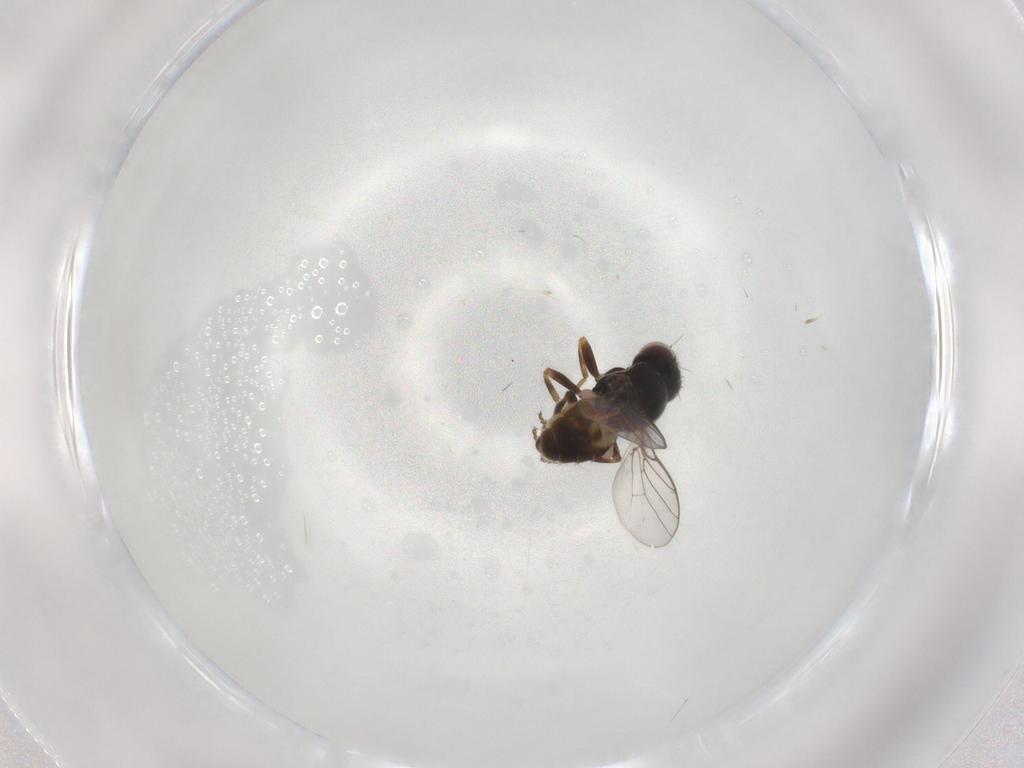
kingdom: Animalia
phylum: Arthropoda
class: Insecta
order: Diptera
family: Chloropidae
